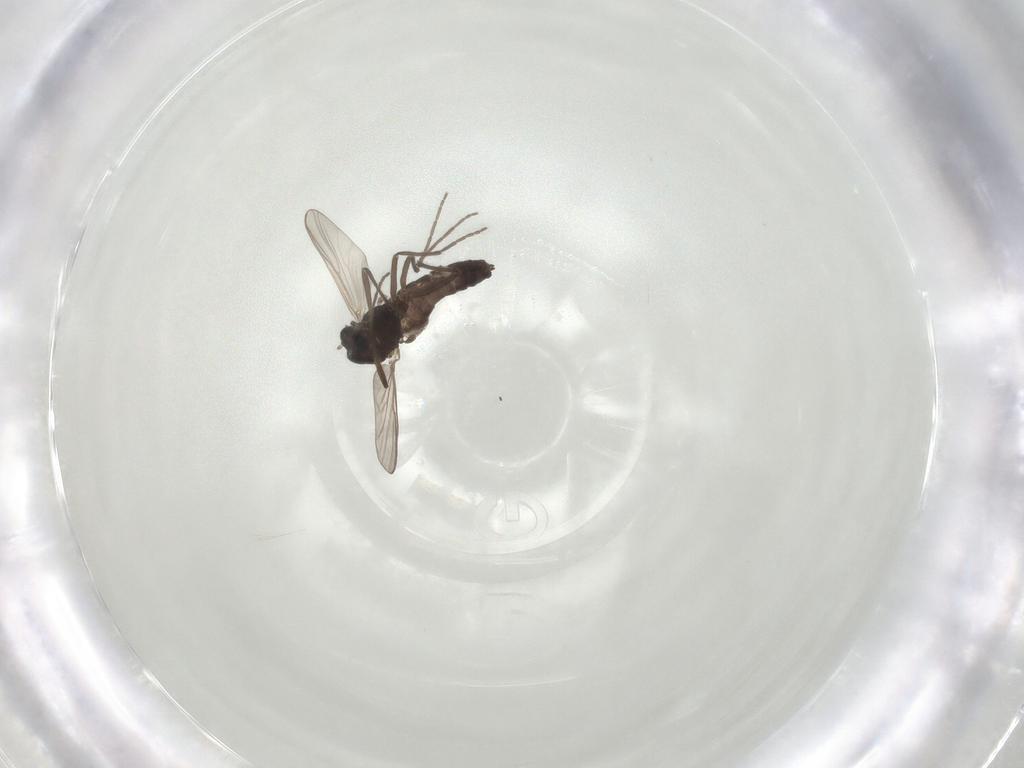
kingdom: Animalia
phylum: Arthropoda
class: Insecta
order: Diptera
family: Chironomidae
